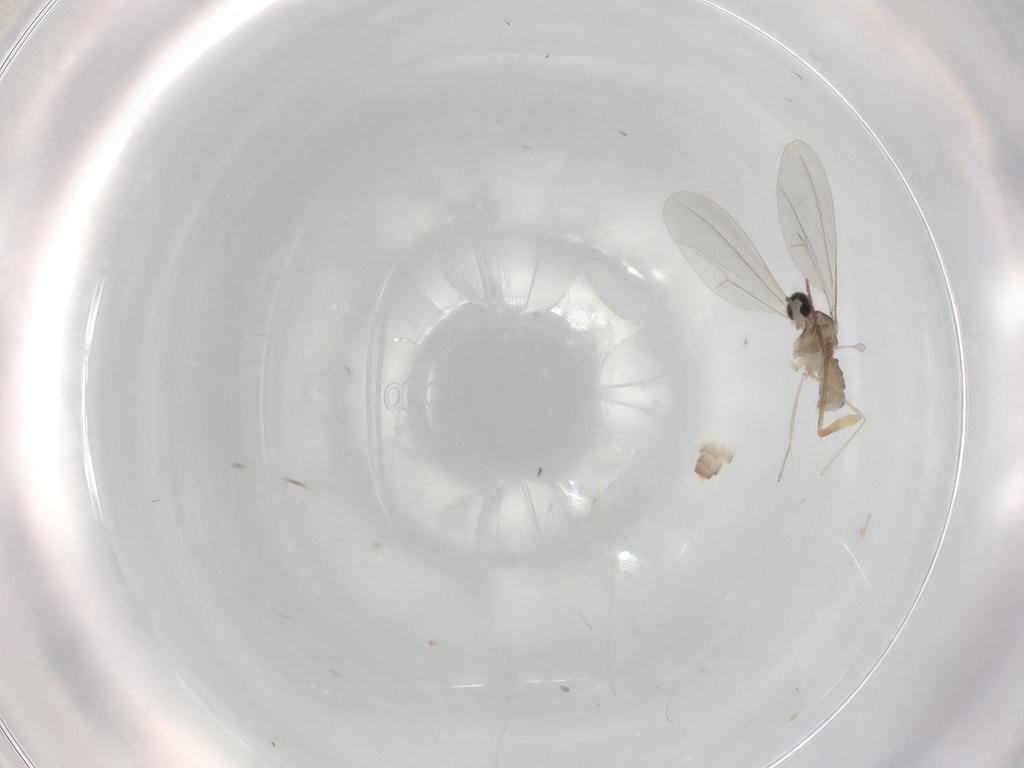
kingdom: Animalia
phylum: Arthropoda
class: Insecta
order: Diptera
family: Cecidomyiidae
